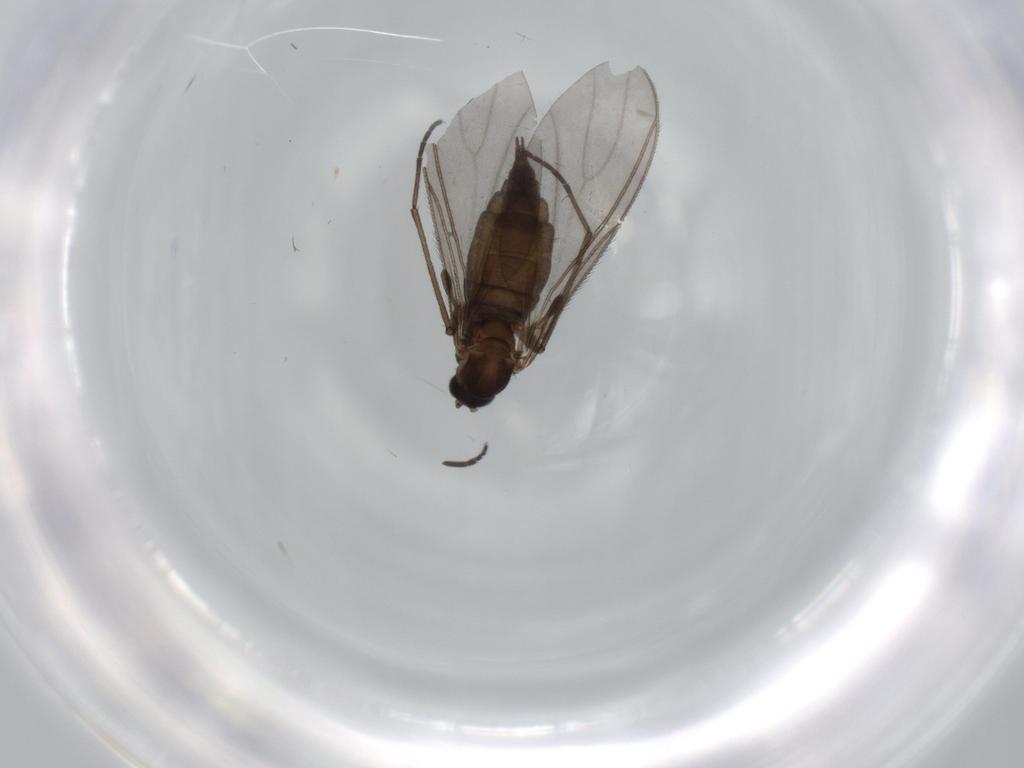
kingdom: Animalia
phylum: Arthropoda
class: Insecta
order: Diptera
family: Sciaridae
